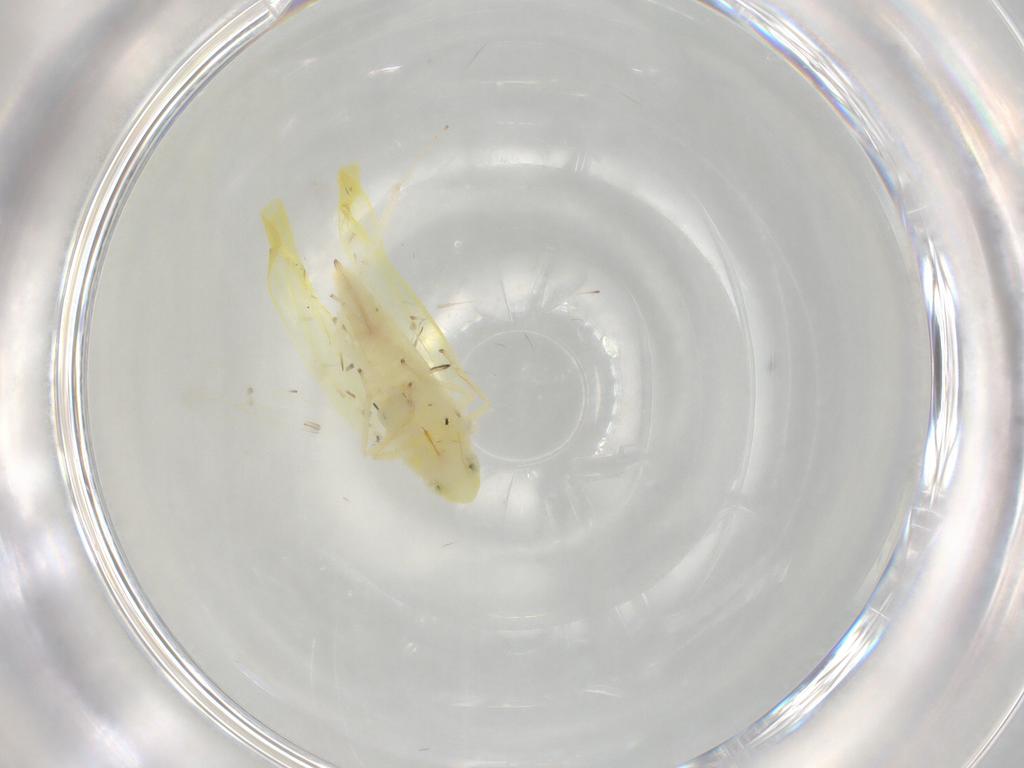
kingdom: Animalia
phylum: Arthropoda
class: Insecta
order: Hemiptera
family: Cicadellidae
